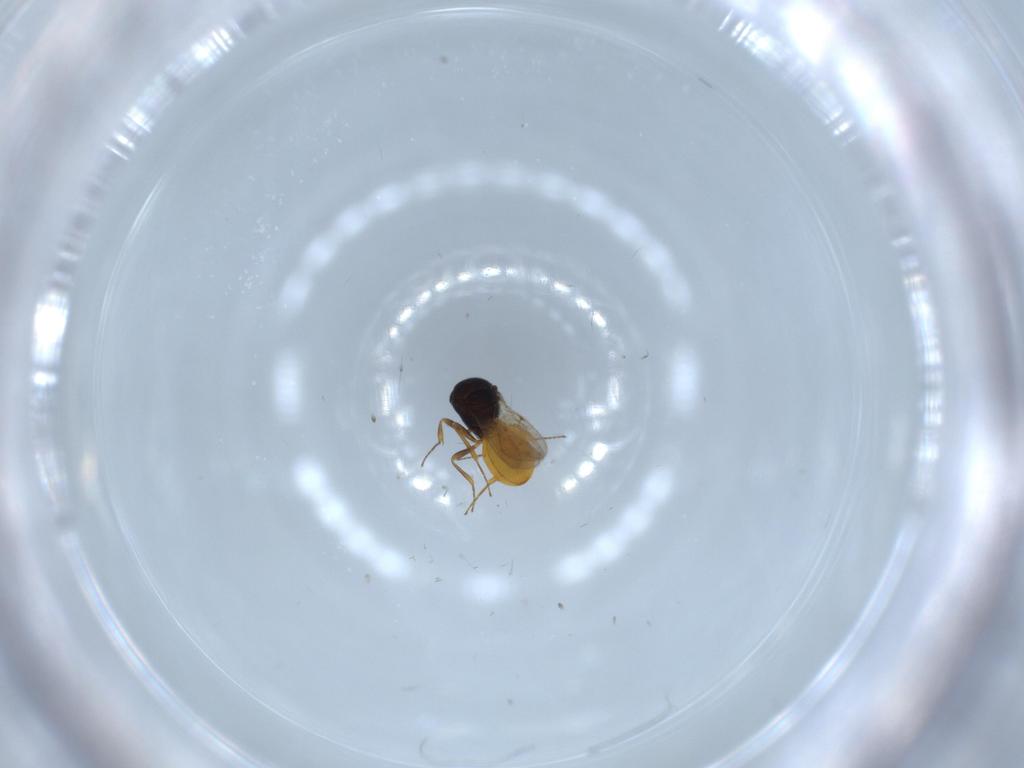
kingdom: Animalia
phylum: Arthropoda
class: Insecta
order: Hymenoptera
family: Scelionidae
